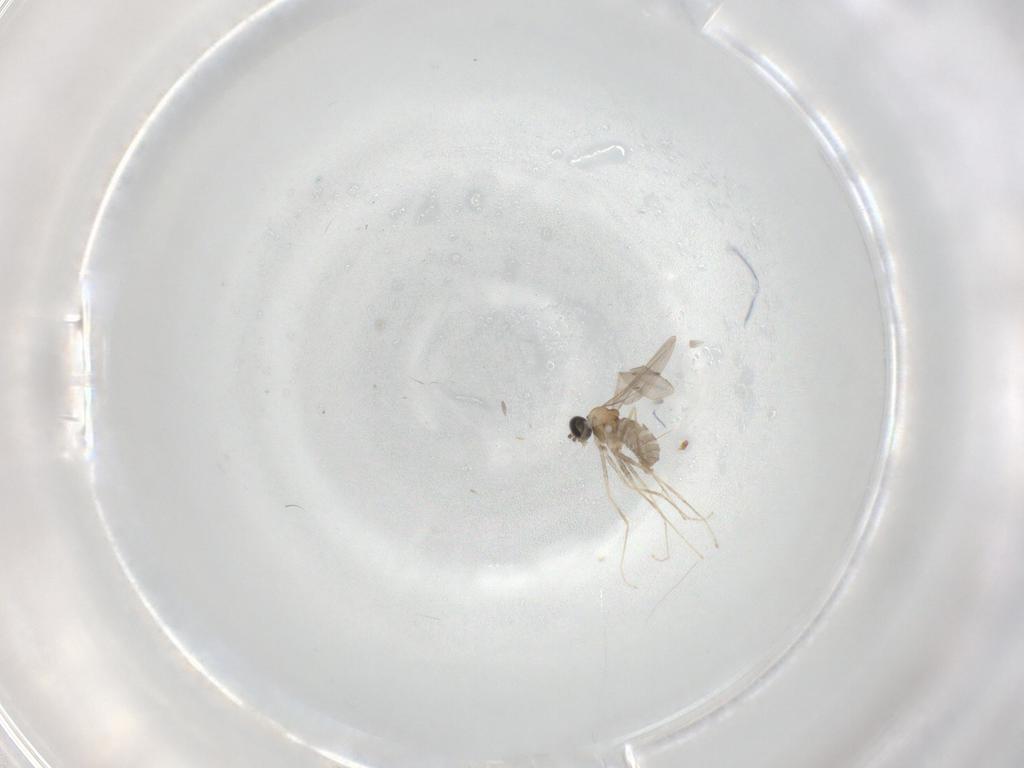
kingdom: Animalia
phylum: Arthropoda
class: Insecta
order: Diptera
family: Cecidomyiidae
